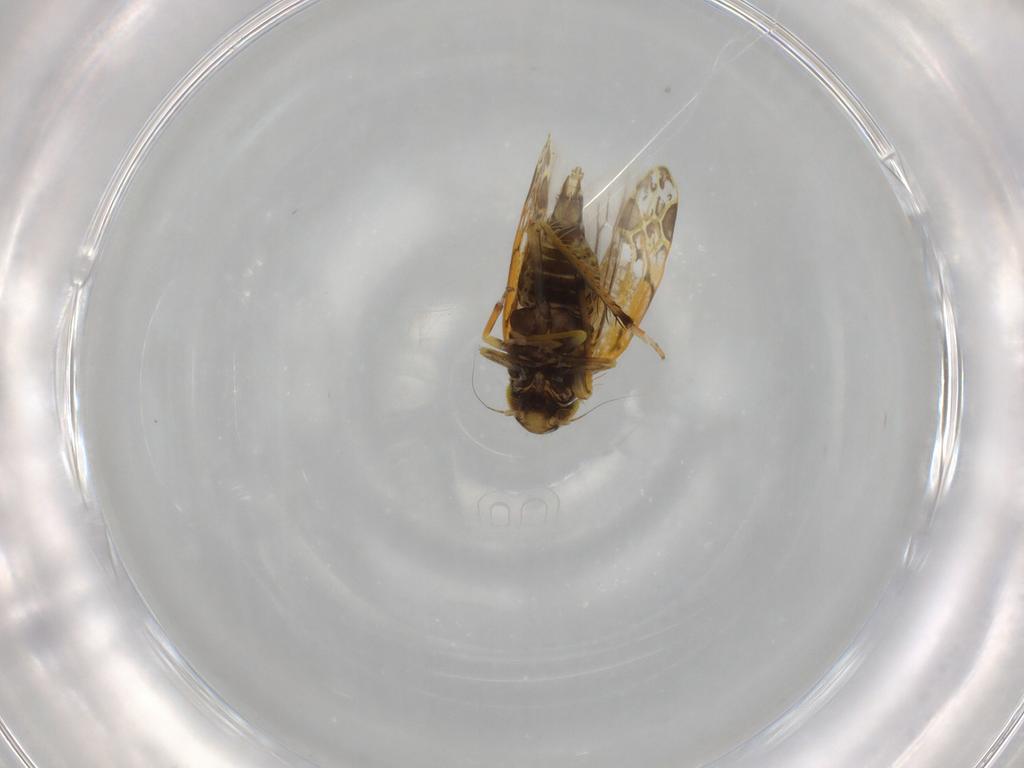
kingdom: Animalia
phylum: Arthropoda
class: Insecta
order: Hemiptera
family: Cicadellidae
